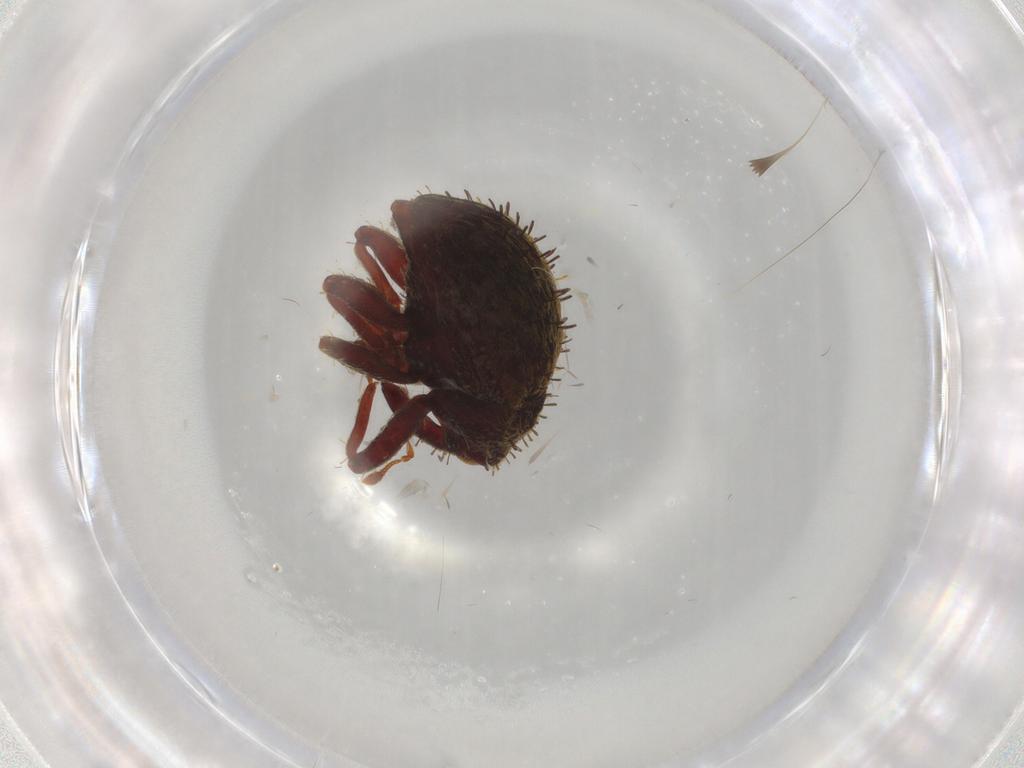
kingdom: Animalia
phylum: Arthropoda
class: Insecta
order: Coleoptera
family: Curculionidae
